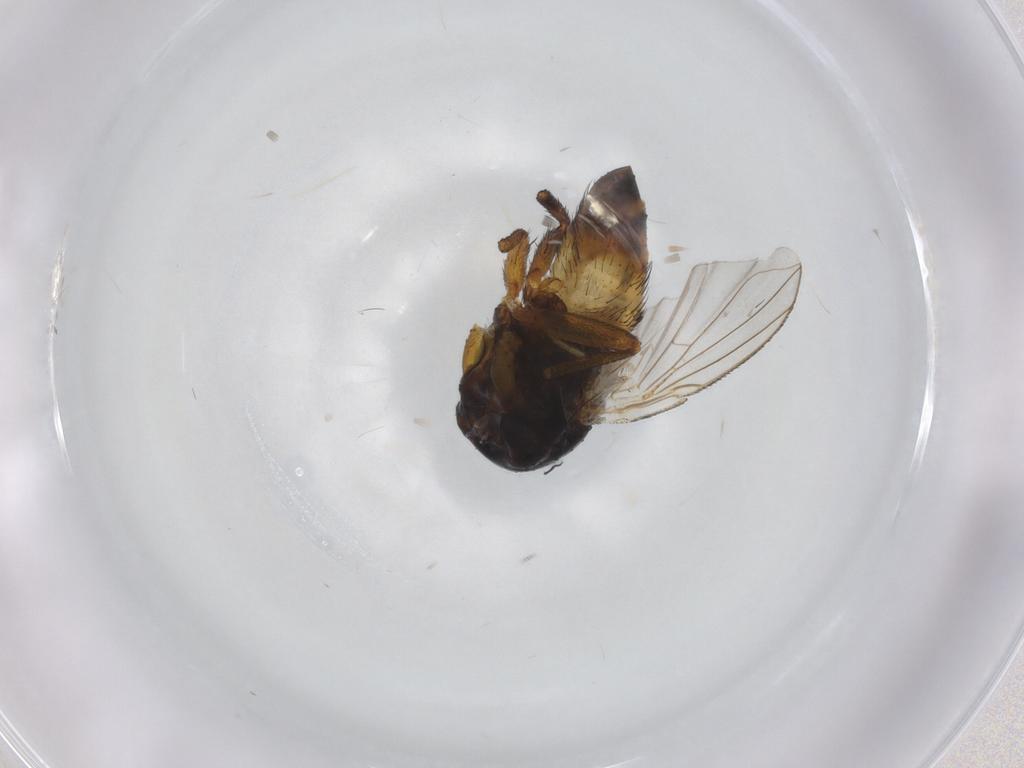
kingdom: Animalia
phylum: Arthropoda
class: Insecta
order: Diptera
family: Tachinidae
